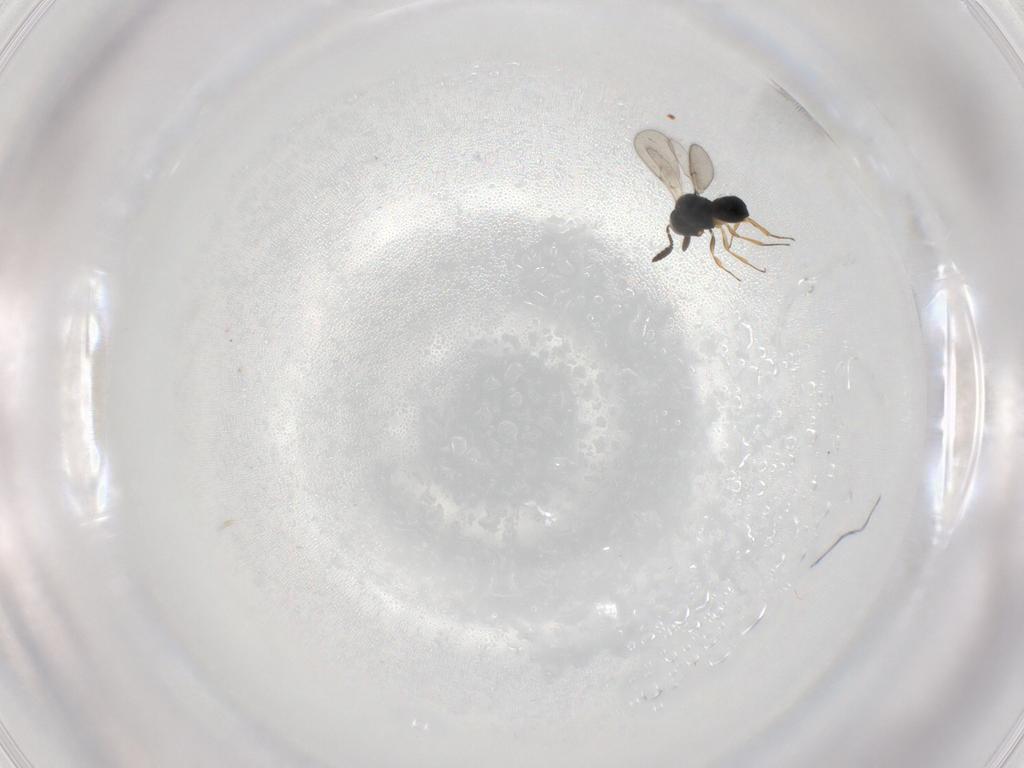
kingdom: Animalia
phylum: Arthropoda
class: Insecta
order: Hymenoptera
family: Scelionidae
